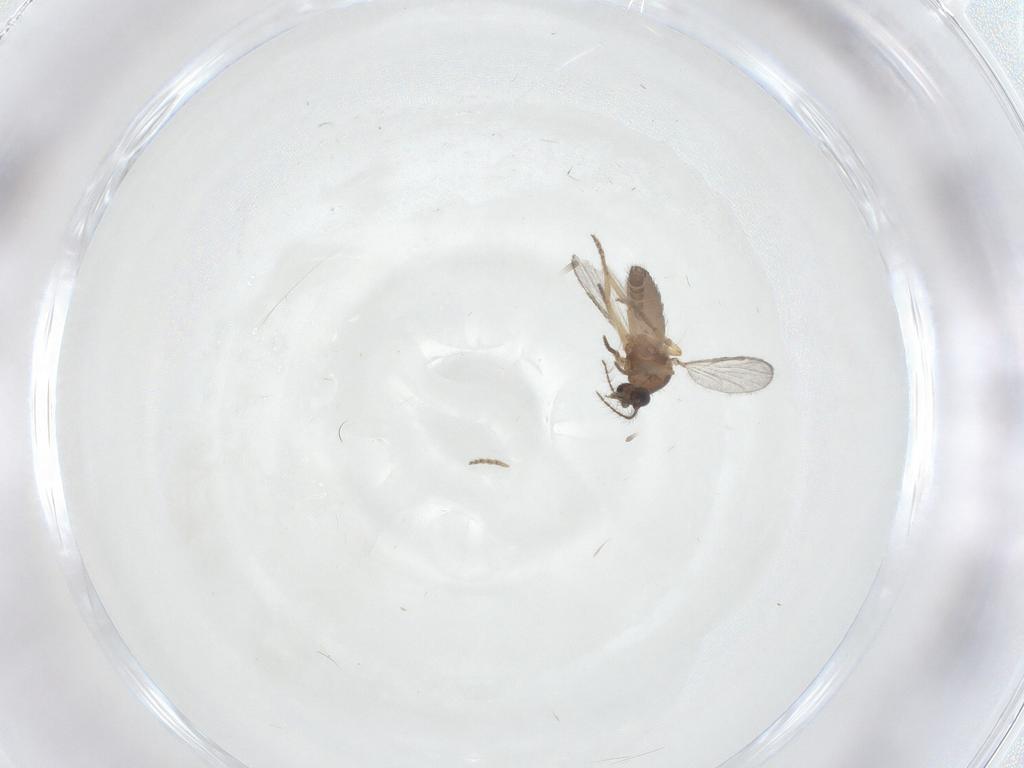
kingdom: Animalia
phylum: Arthropoda
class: Insecta
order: Diptera
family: Ceratopogonidae
